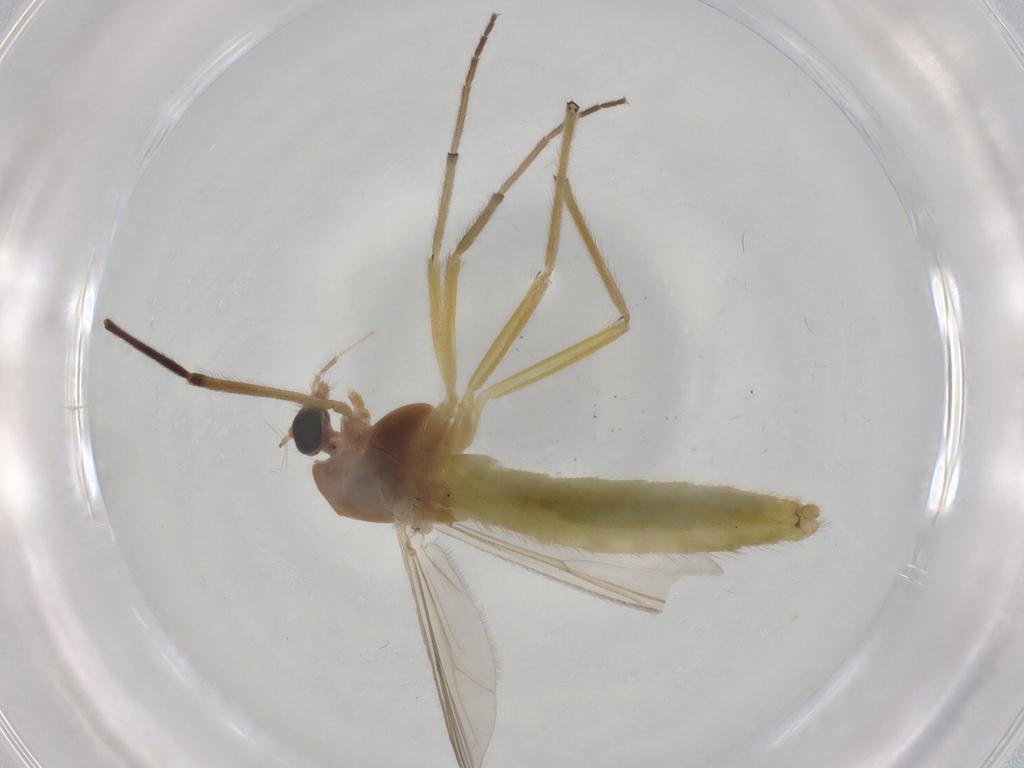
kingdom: Animalia
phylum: Arthropoda
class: Insecta
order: Diptera
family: Chironomidae
